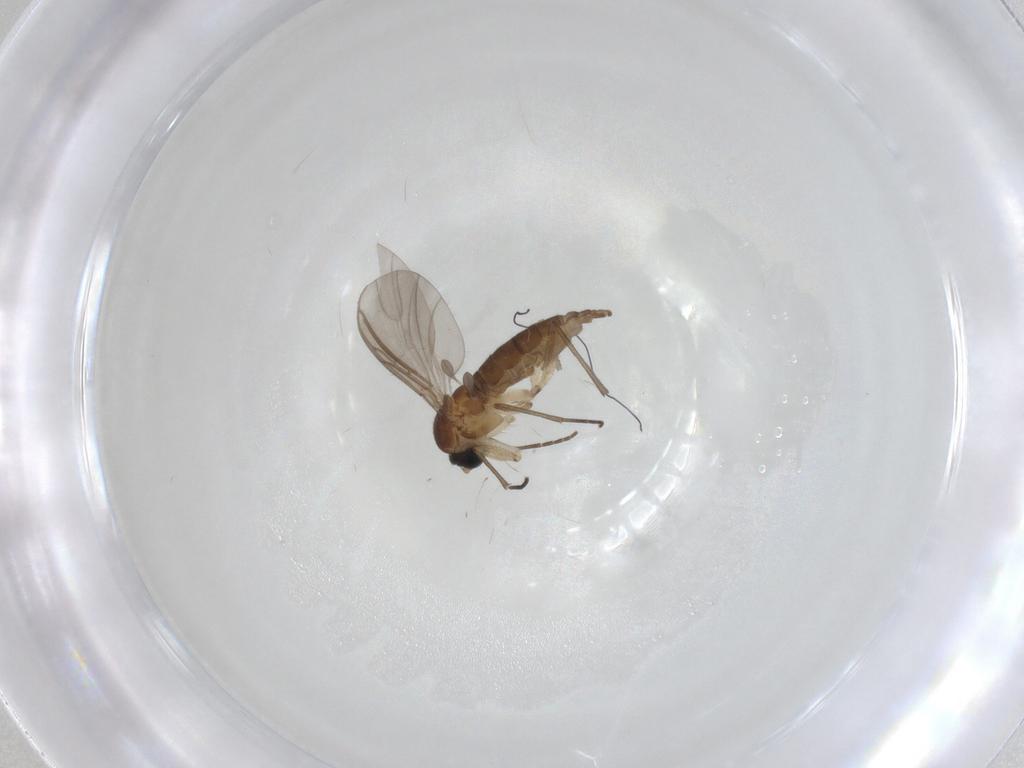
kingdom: Animalia
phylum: Arthropoda
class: Insecta
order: Diptera
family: Sciaridae
